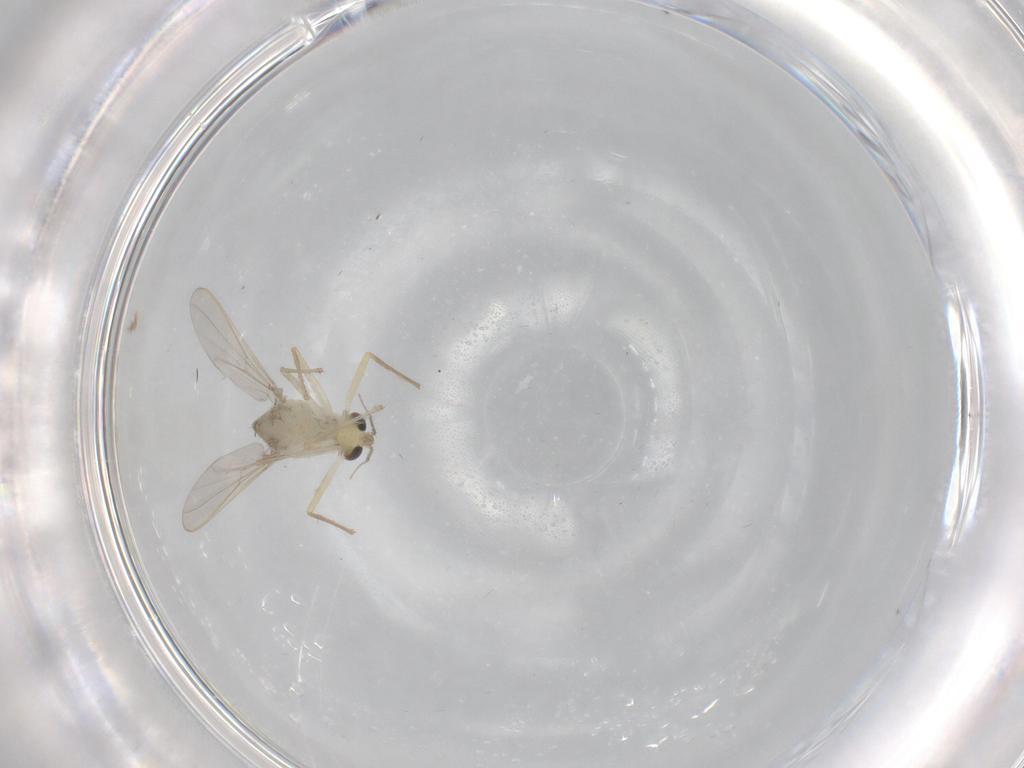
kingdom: Animalia
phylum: Arthropoda
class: Insecta
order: Diptera
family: Chironomidae
